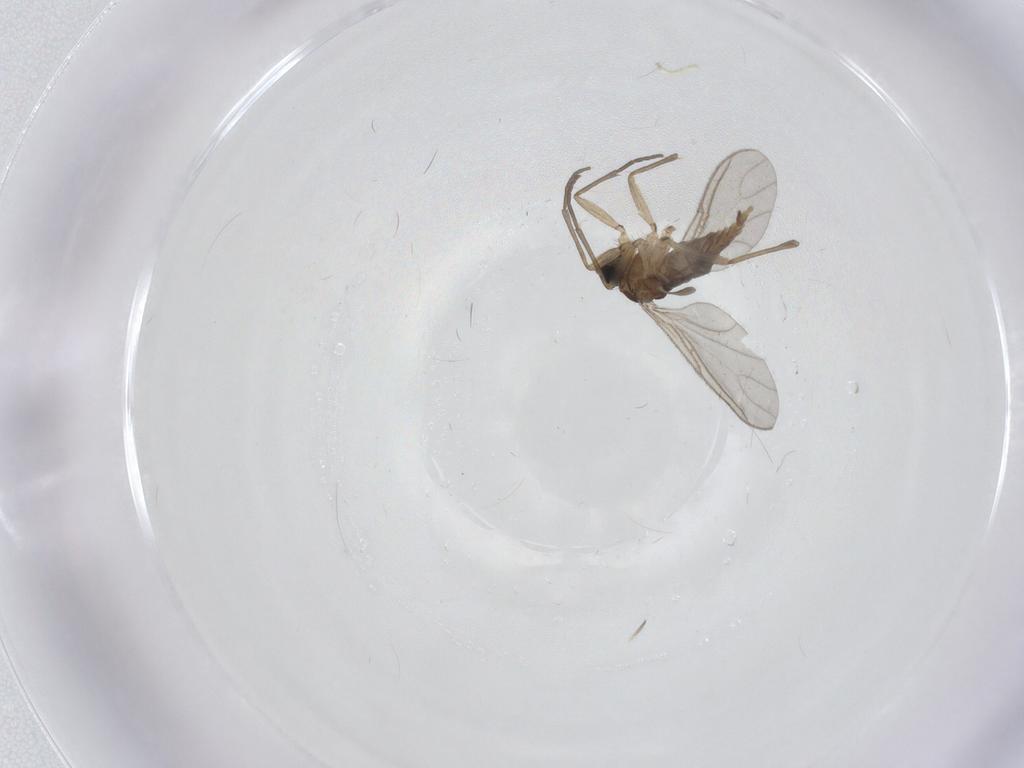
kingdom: Animalia
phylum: Arthropoda
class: Insecta
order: Diptera
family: Sciaridae
